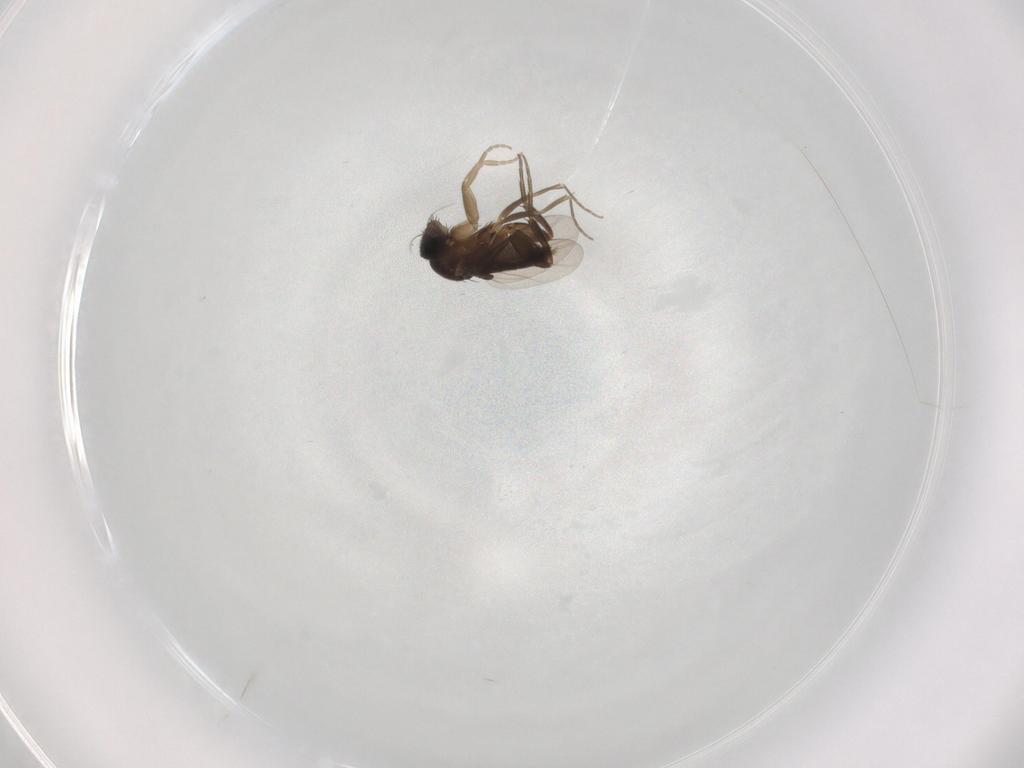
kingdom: Animalia
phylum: Arthropoda
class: Insecta
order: Diptera
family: Phoridae
